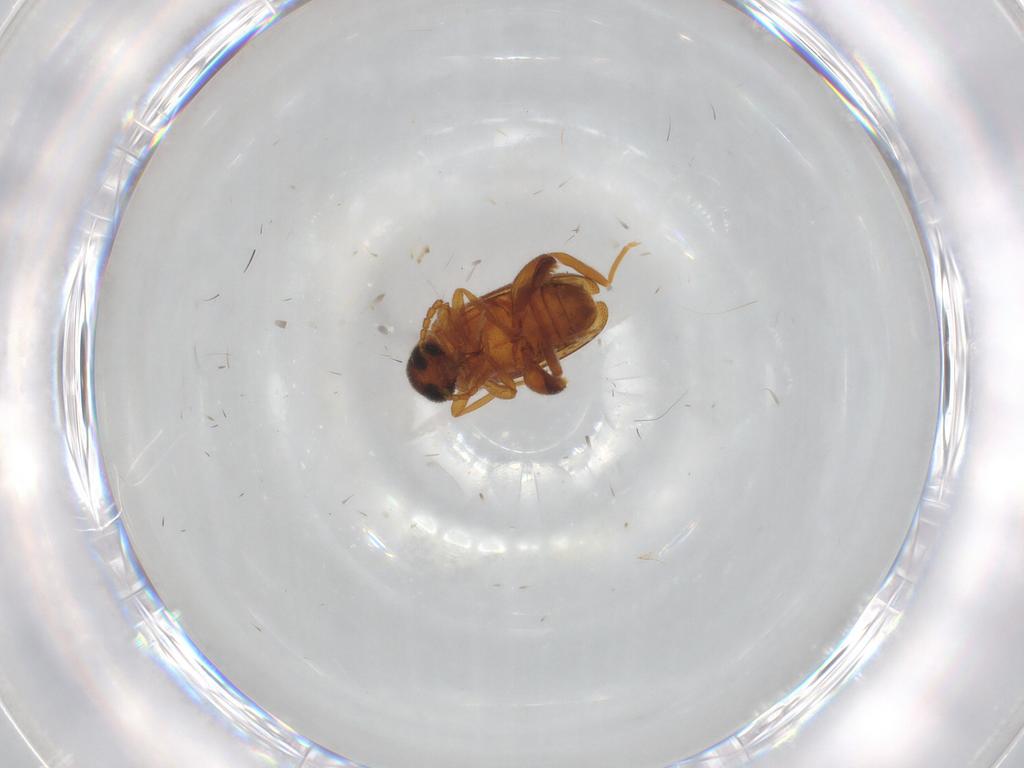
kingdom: Animalia
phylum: Arthropoda
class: Insecta
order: Coleoptera
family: Aderidae
